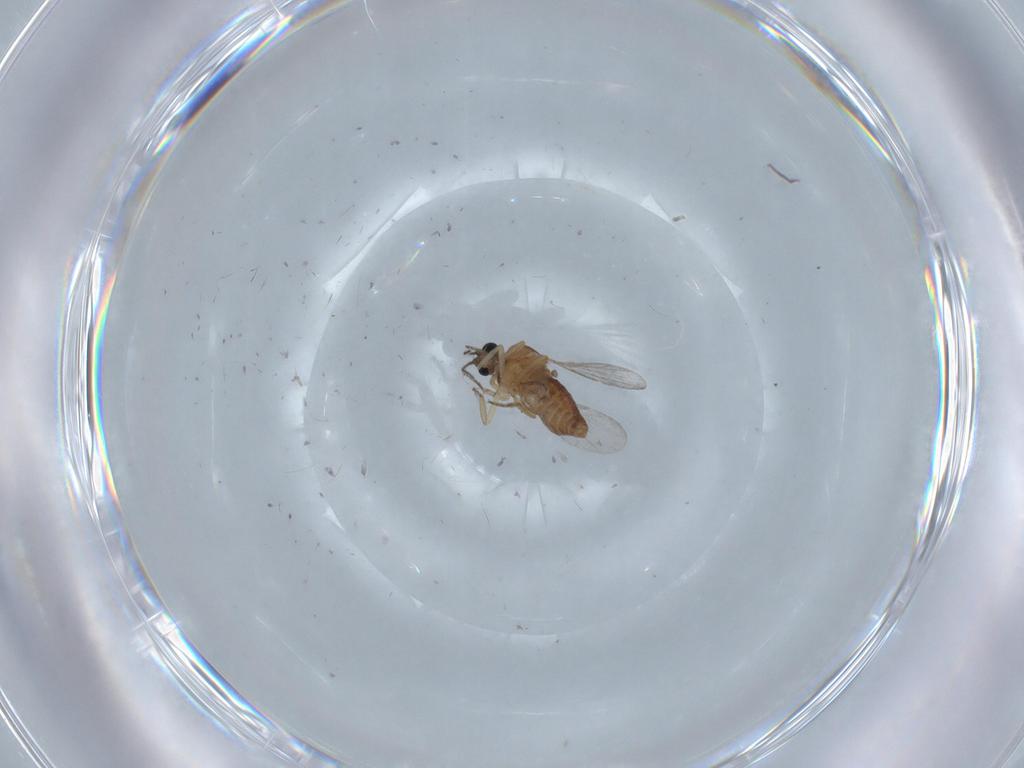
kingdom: Animalia
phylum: Arthropoda
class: Insecta
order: Diptera
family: Ceratopogonidae
